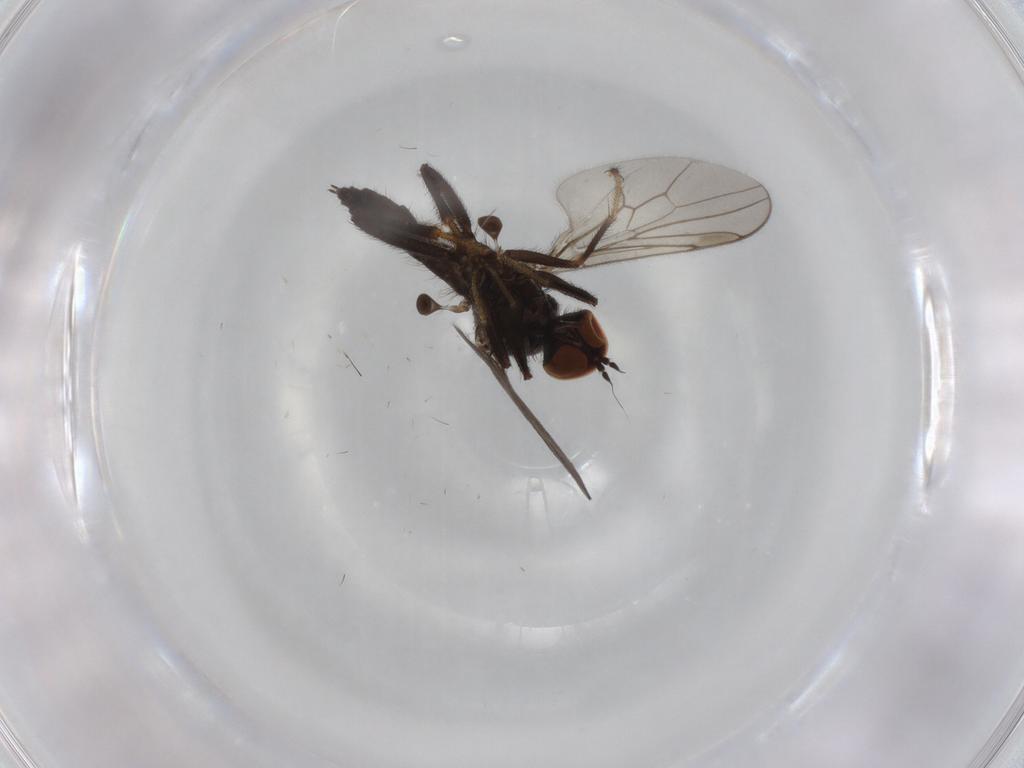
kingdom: Animalia
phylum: Arthropoda
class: Insecta
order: Diptera
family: Hybotidae
